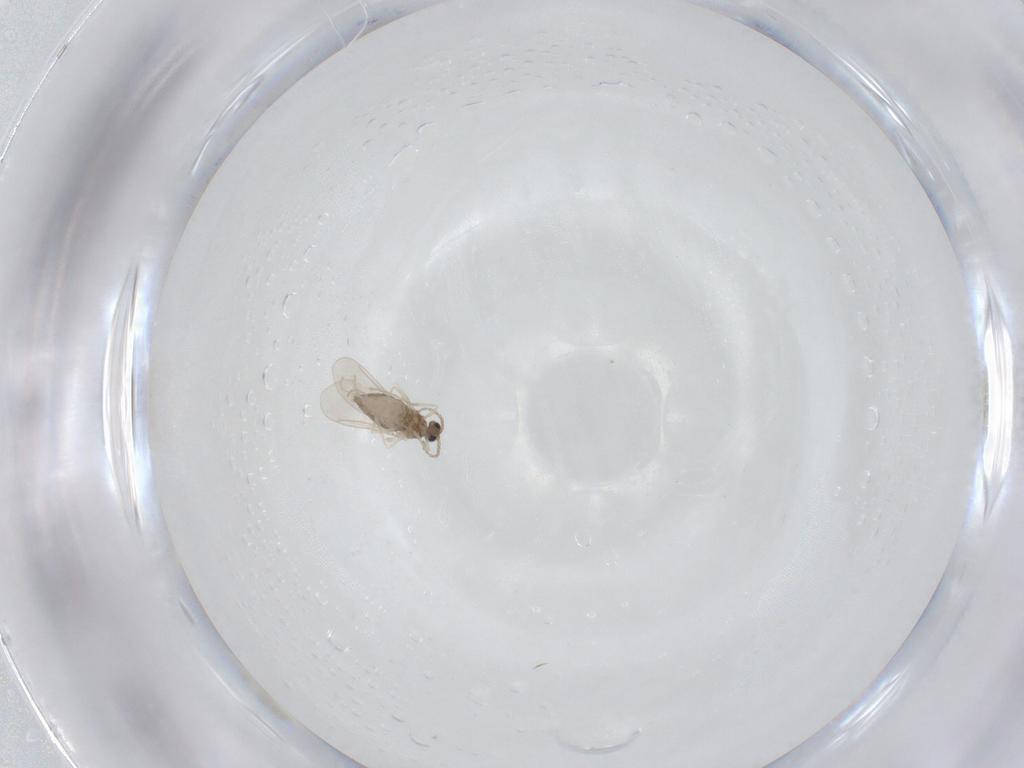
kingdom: Animalia
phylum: Arthropoda
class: Insecta
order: Diptera
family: Cecidomyiidae
